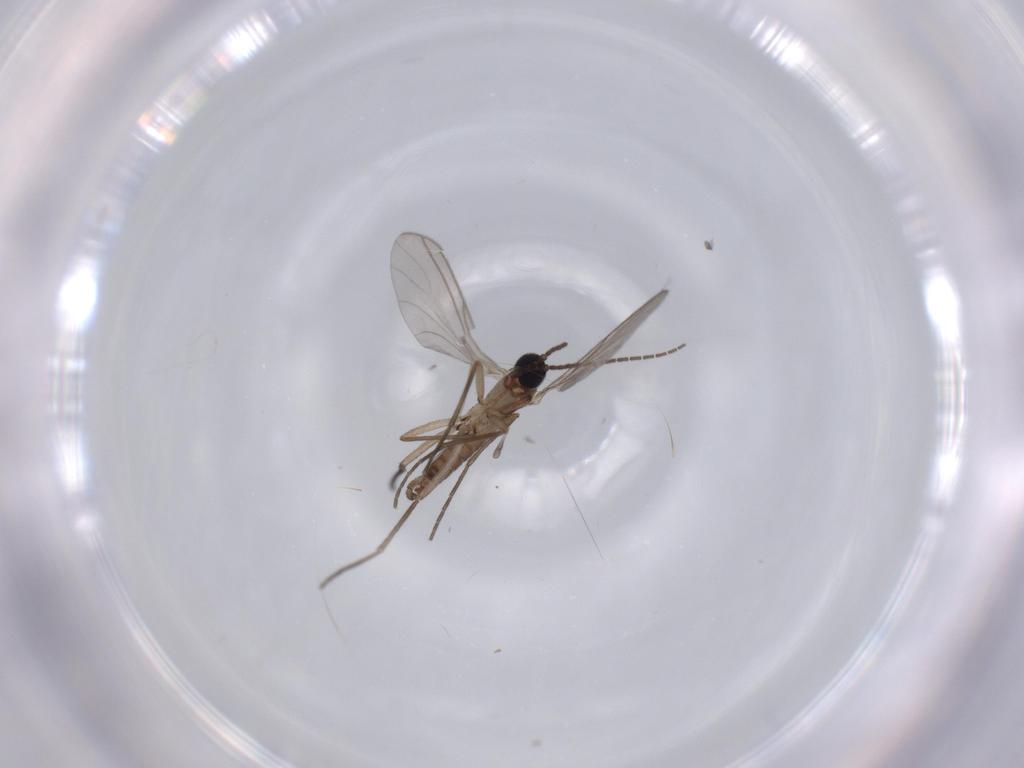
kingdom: Animalia
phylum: Arthropoda
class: Insecta
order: Diptera
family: Sciaridae
